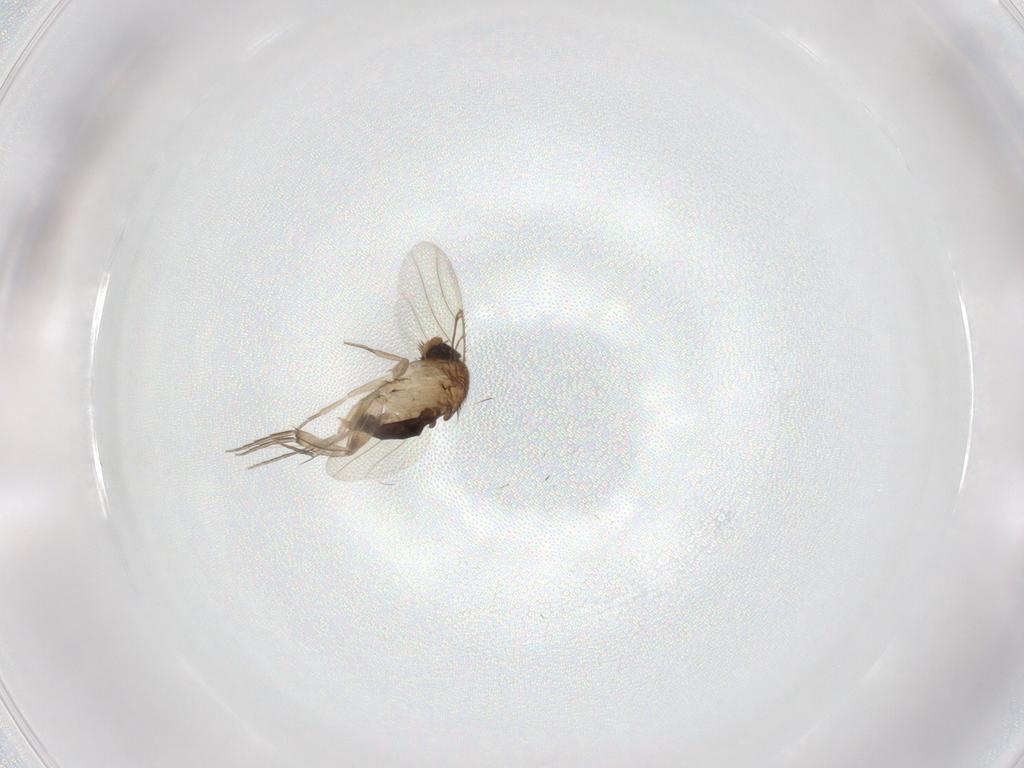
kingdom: Animalia
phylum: Arthropoda
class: Insecta
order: Diptera
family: Phoridae
